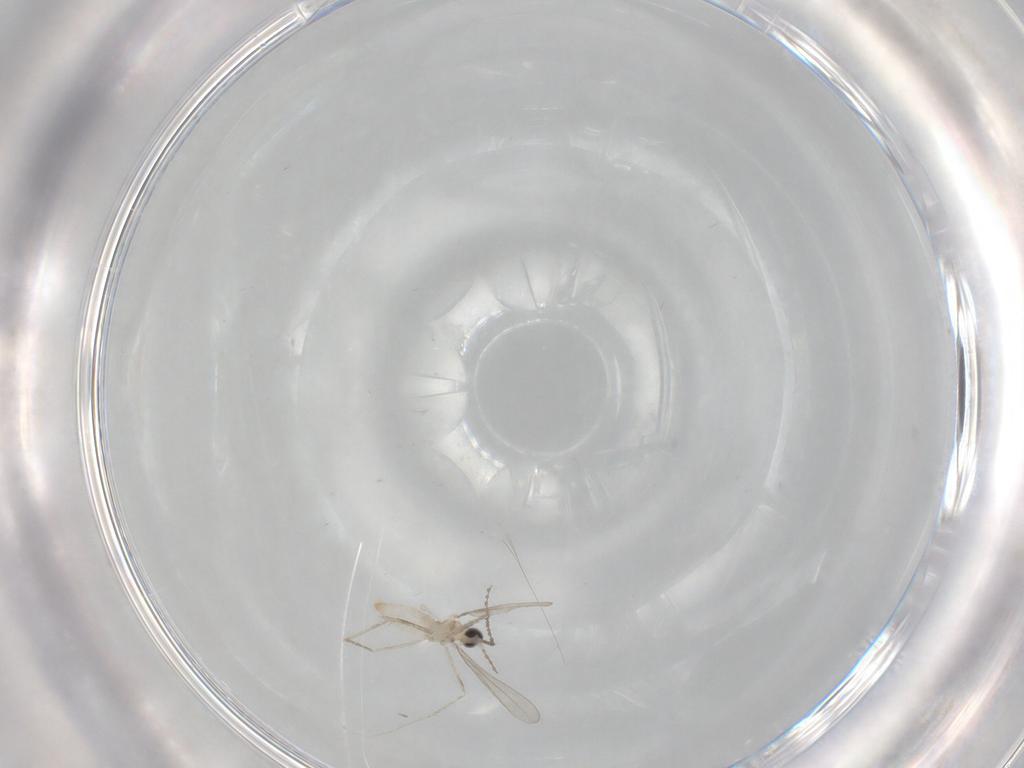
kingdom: Animalia
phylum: Arthropoda
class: Insecta
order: Diptera
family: Cecidomyiidae
